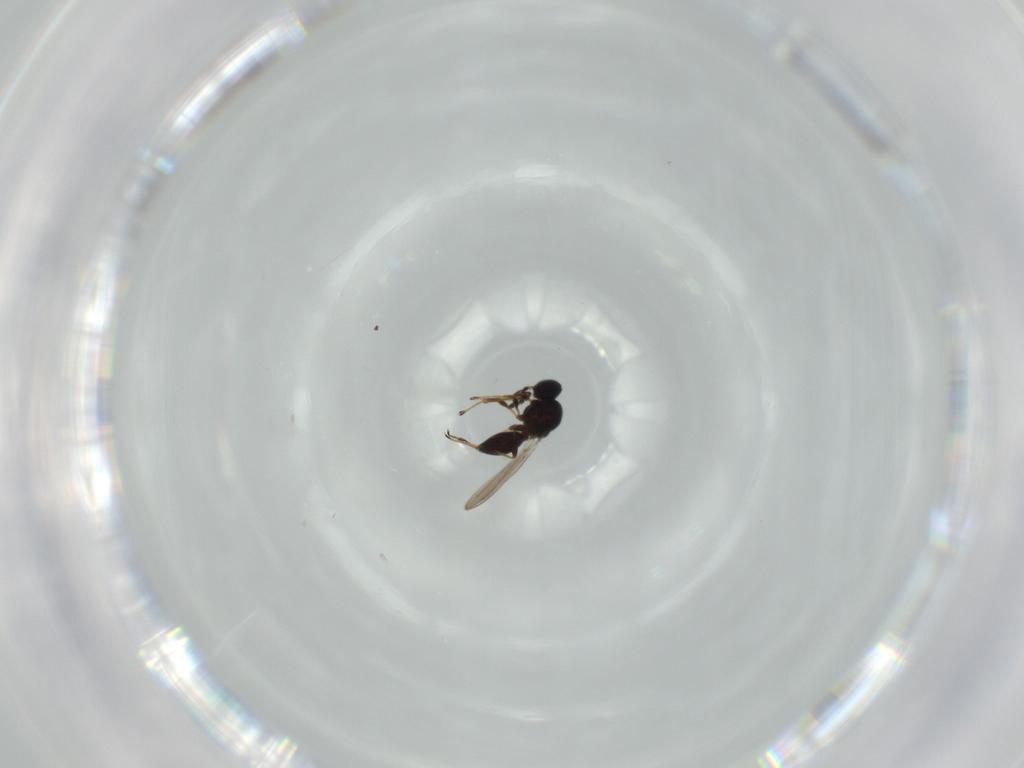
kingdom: Animalia
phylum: Arthropoda
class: Insecta
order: Hymenoptera
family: Platygastridae
